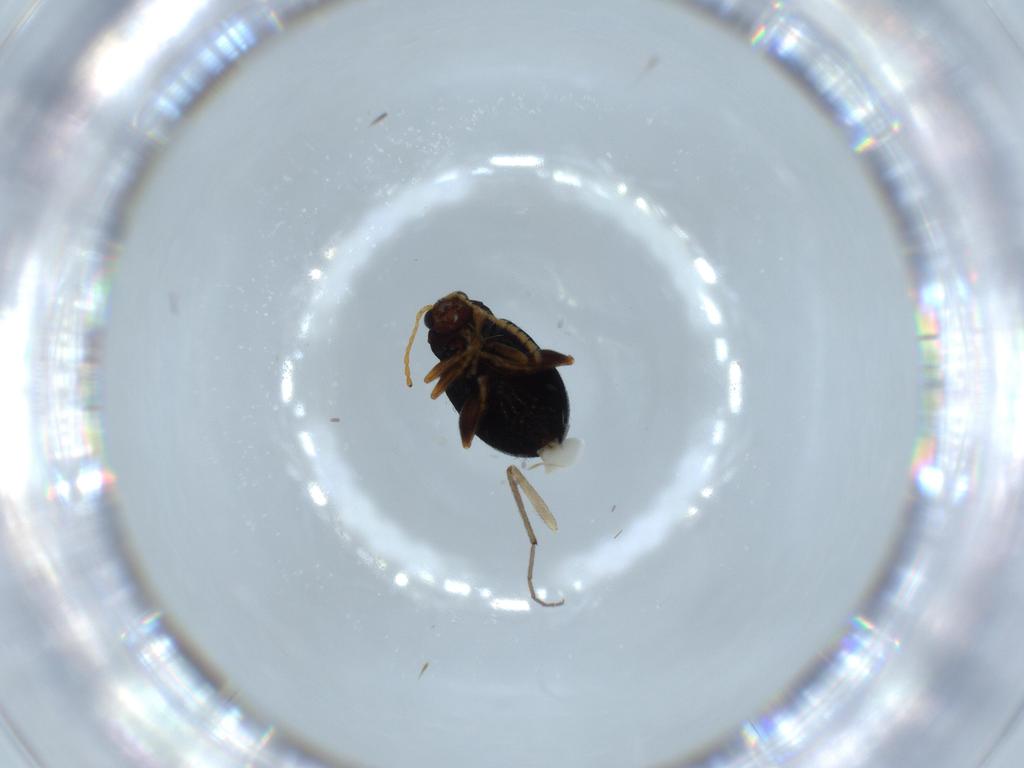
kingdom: Animalia
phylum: Arthropoda
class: Insecta
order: Coleoptera
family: Chrysomelidae
